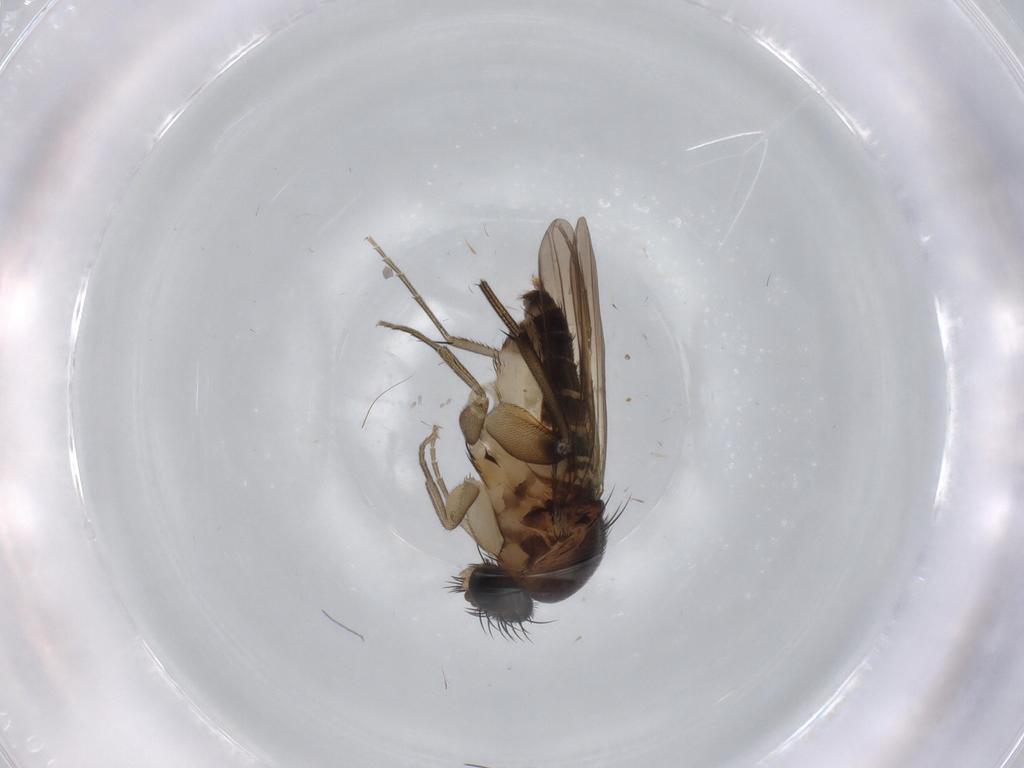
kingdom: Animalia
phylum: Arthropoda
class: Insecta
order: Diptera
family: Phoridae
